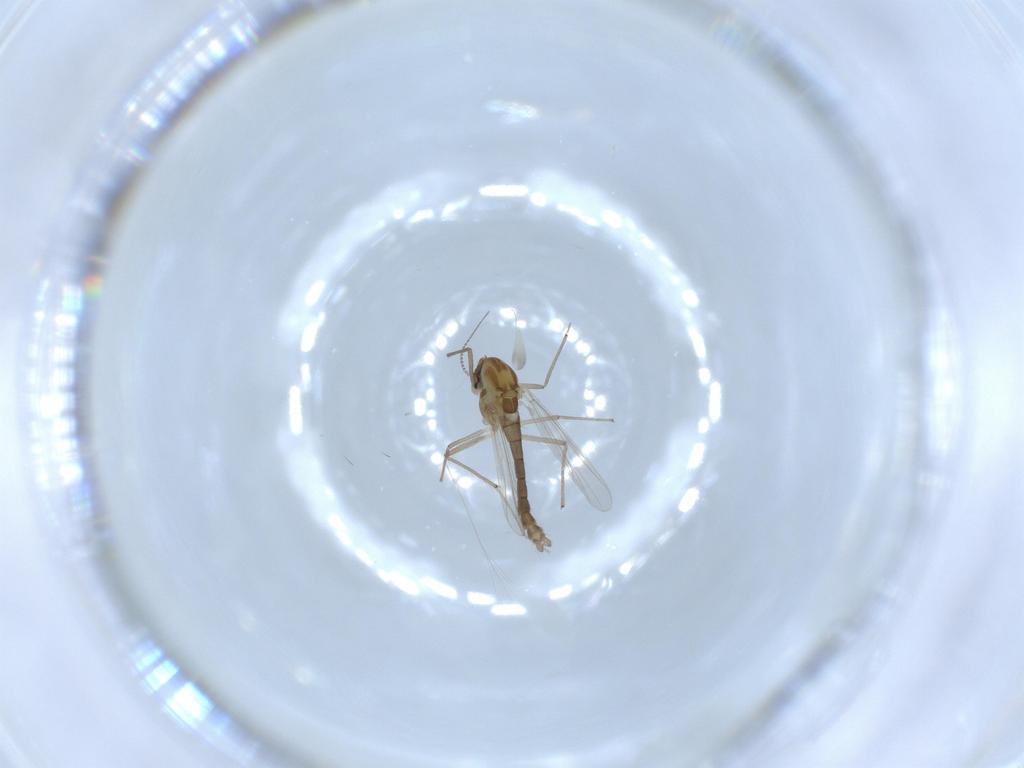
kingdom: Animalia
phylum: Arthropoda
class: Insecta
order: Diptera
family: Chironomidae
